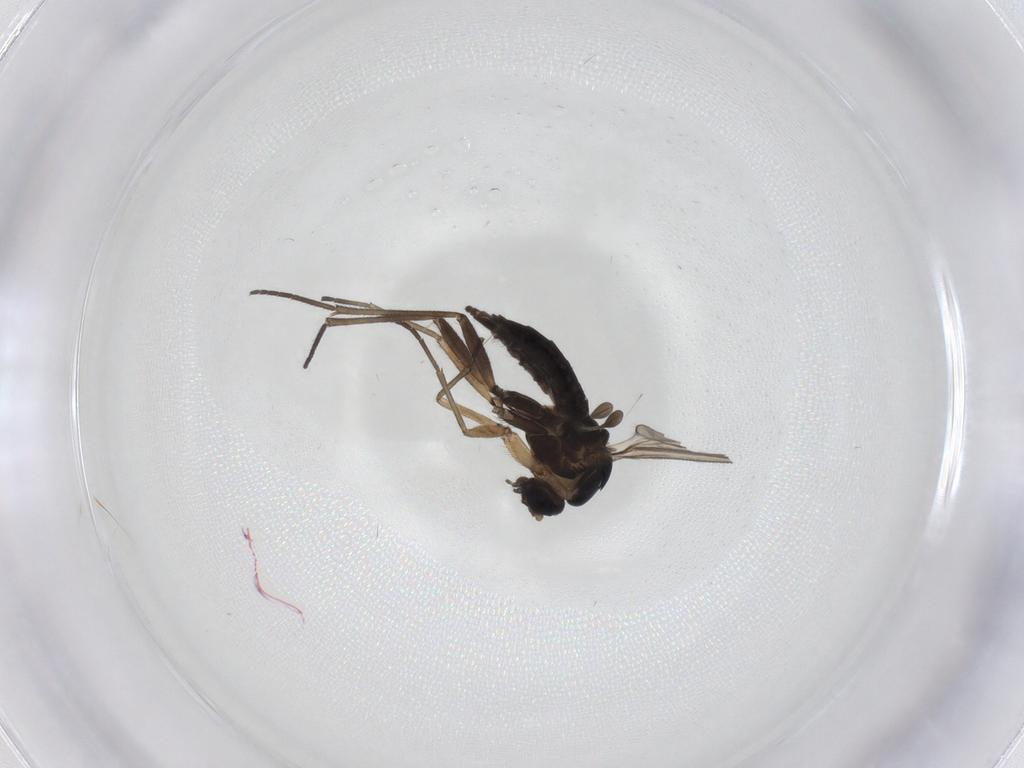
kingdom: Animalia
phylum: Arthropoda
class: Insecta
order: Diptera
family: Sciaridae
